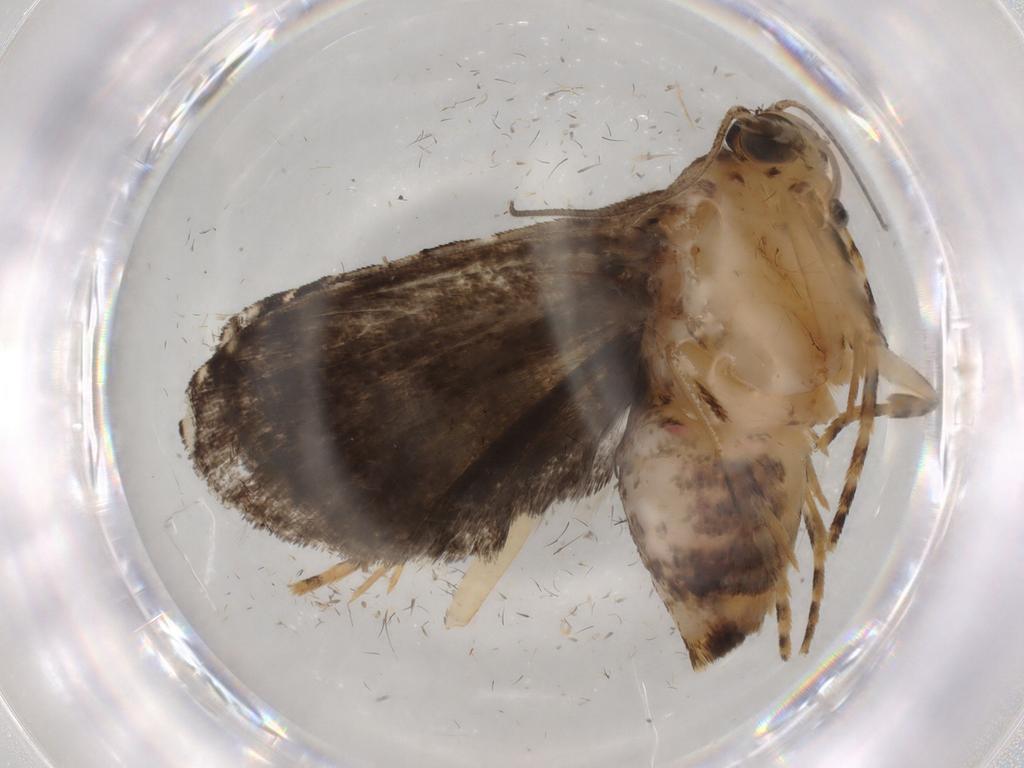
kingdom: Animalia
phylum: Arthropoda
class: Insecta
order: Lepidoptera
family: Immidae
